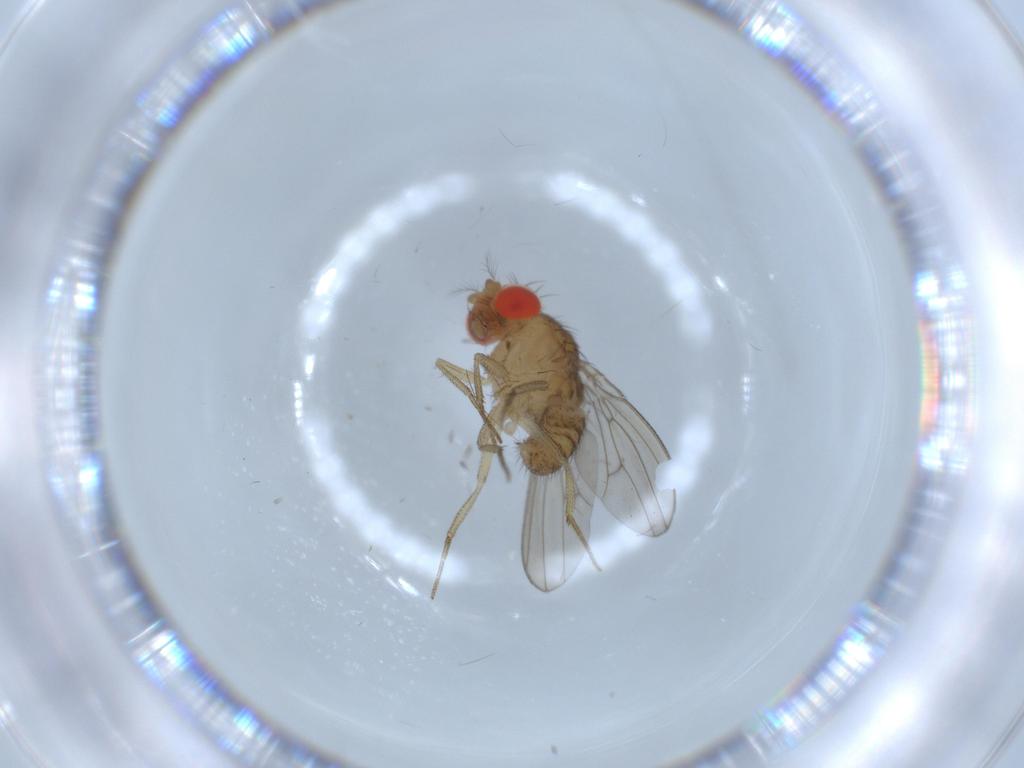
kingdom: Animalia
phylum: Arthropoda
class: Insecta
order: Diptera
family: Drosophilidae
